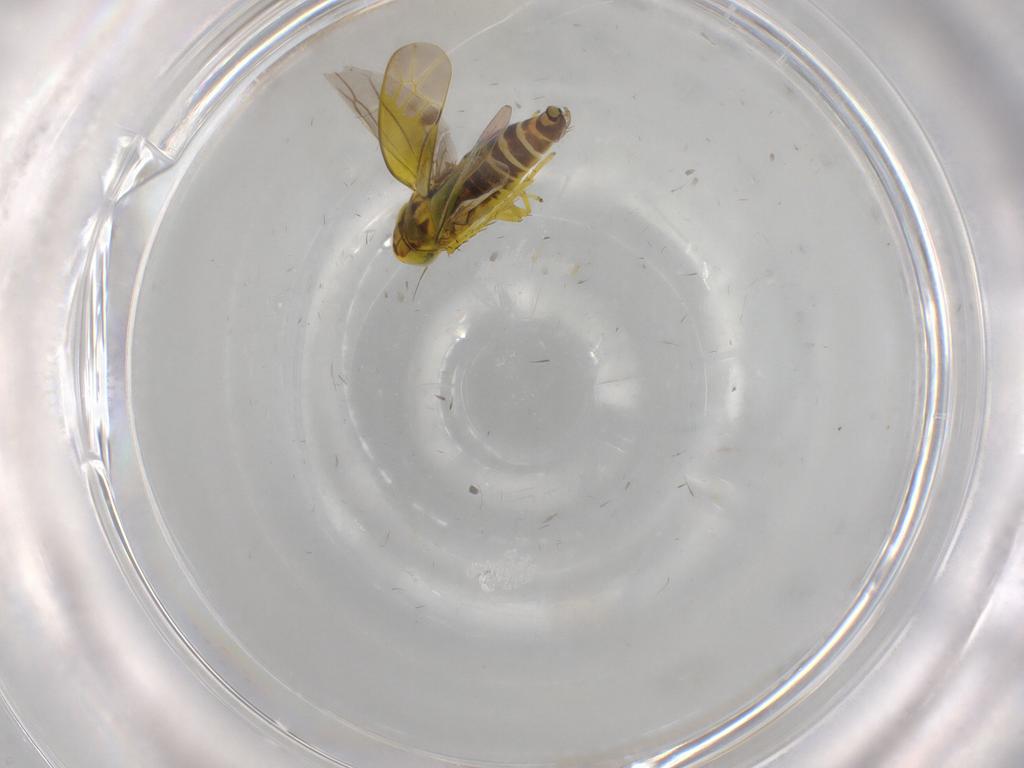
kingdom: Animalia
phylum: Arthropoda
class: Insecta
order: Hemiptera
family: Cicadellidae
